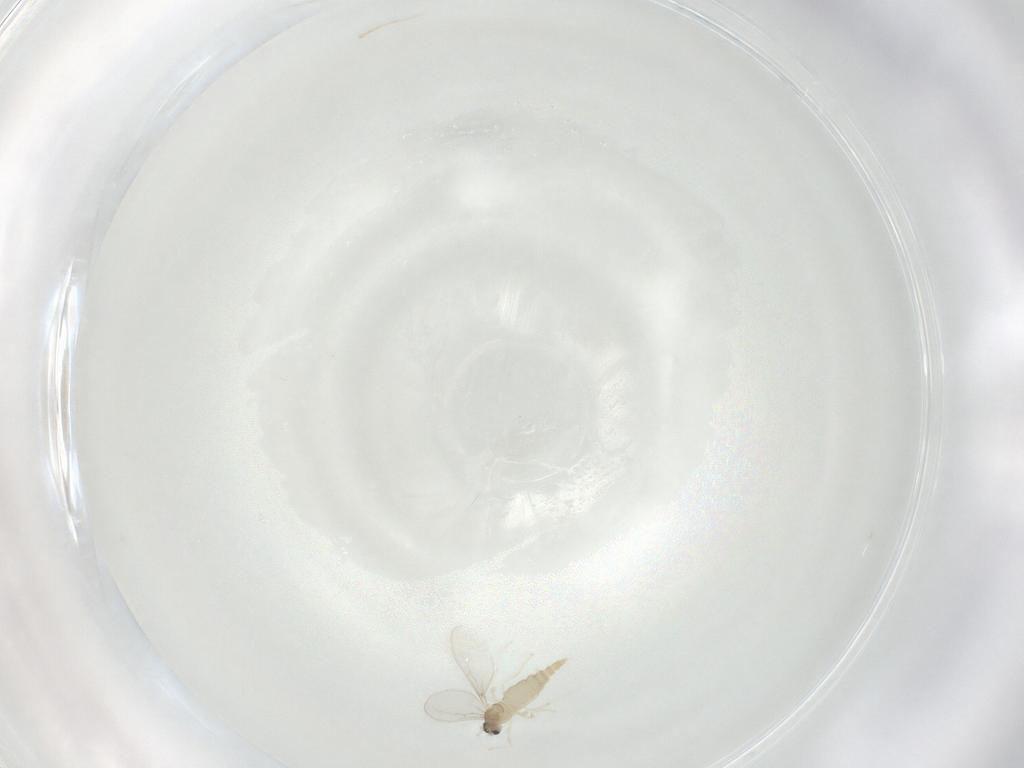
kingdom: Animalia
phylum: Arthropoda
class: Insecta
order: Diptera
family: Cecidomyiidae
